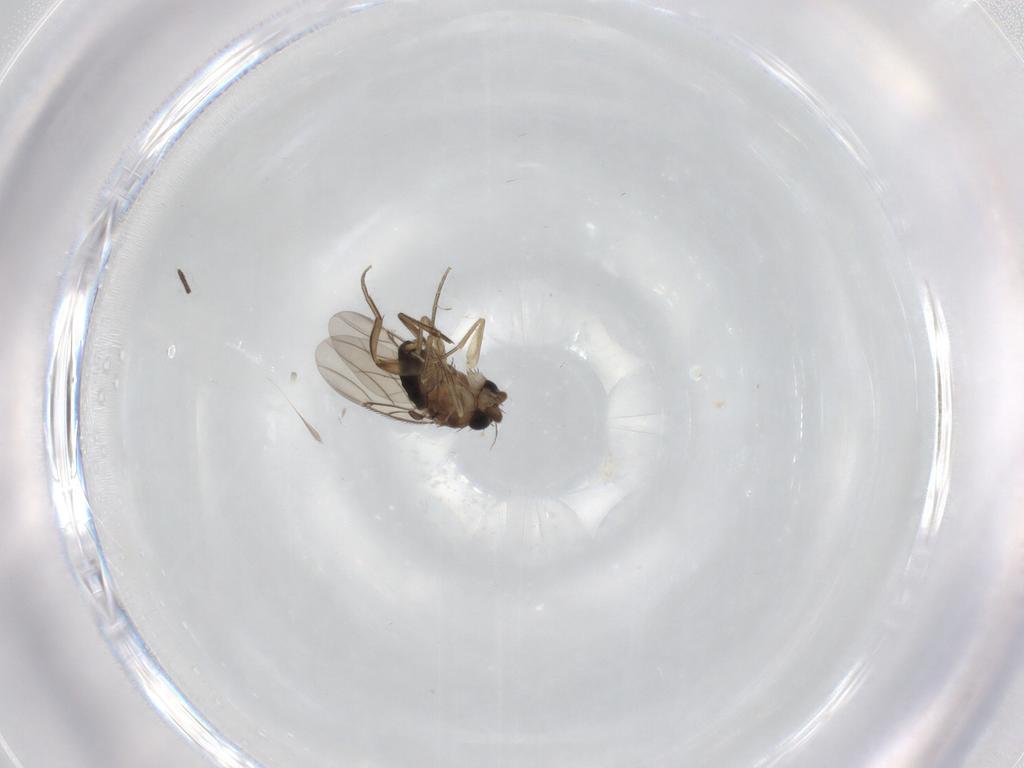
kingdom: Animalia
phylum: Arthropoda
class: Insecta
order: Diptera
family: Phoridae
